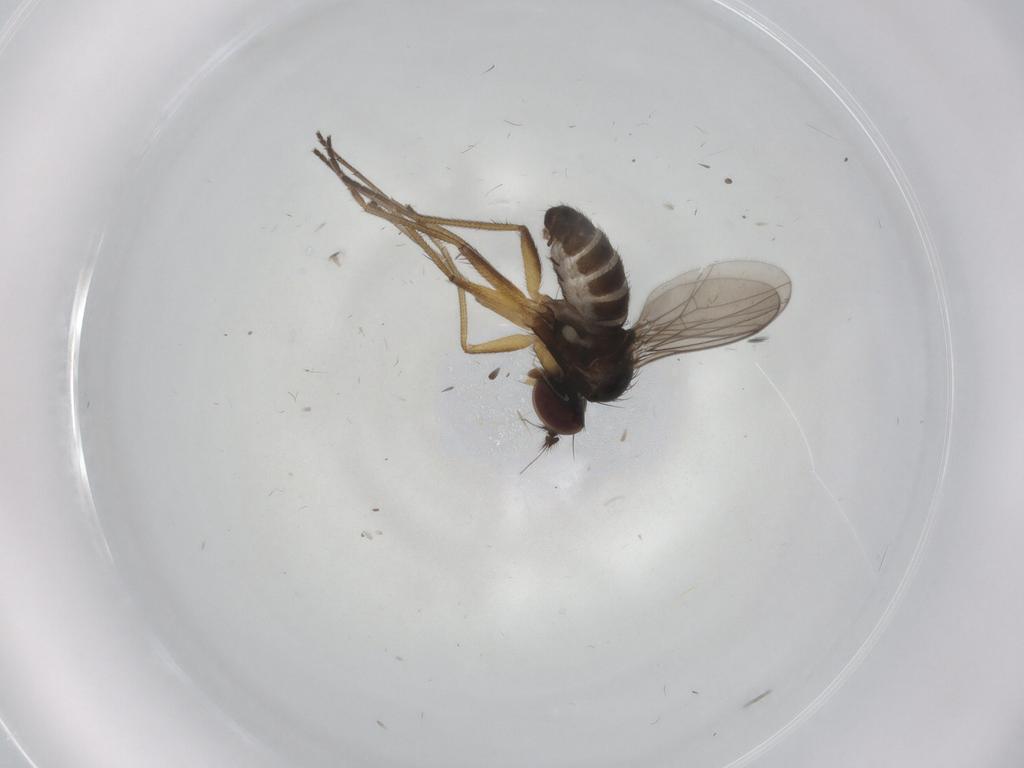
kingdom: Animalia
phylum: Arthropoda
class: Insecta
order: Diptera
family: Dolichopodidae
